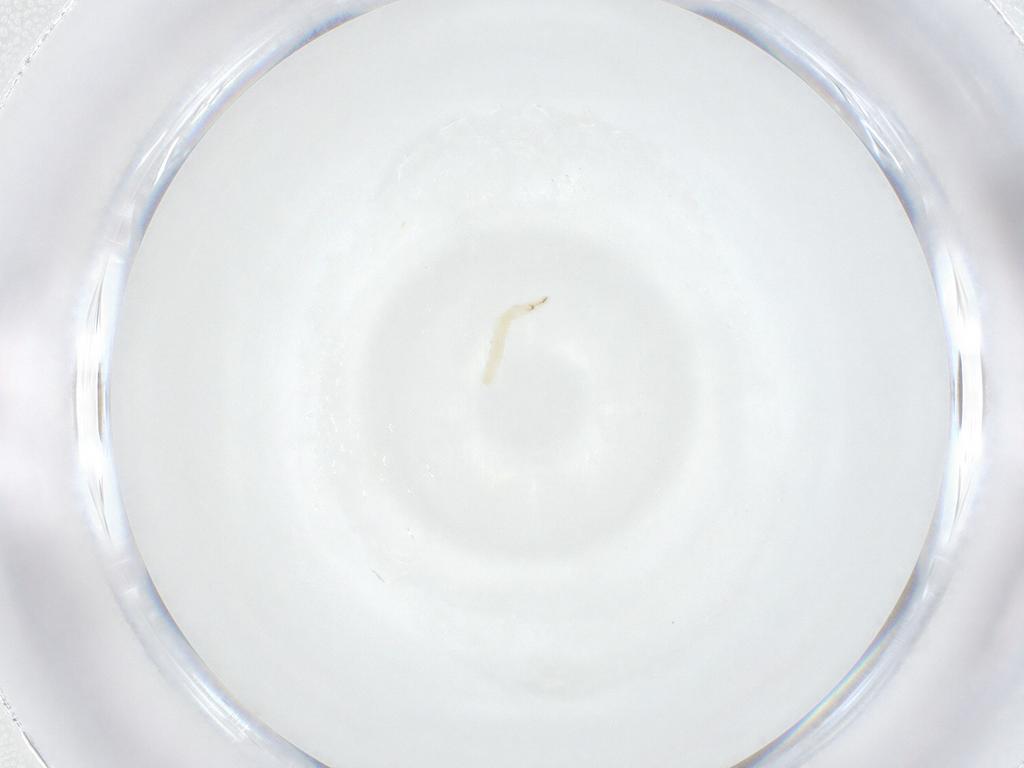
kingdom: Animalia
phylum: Arthropoda
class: Insecta
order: Diptera
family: Sarcophagidae
